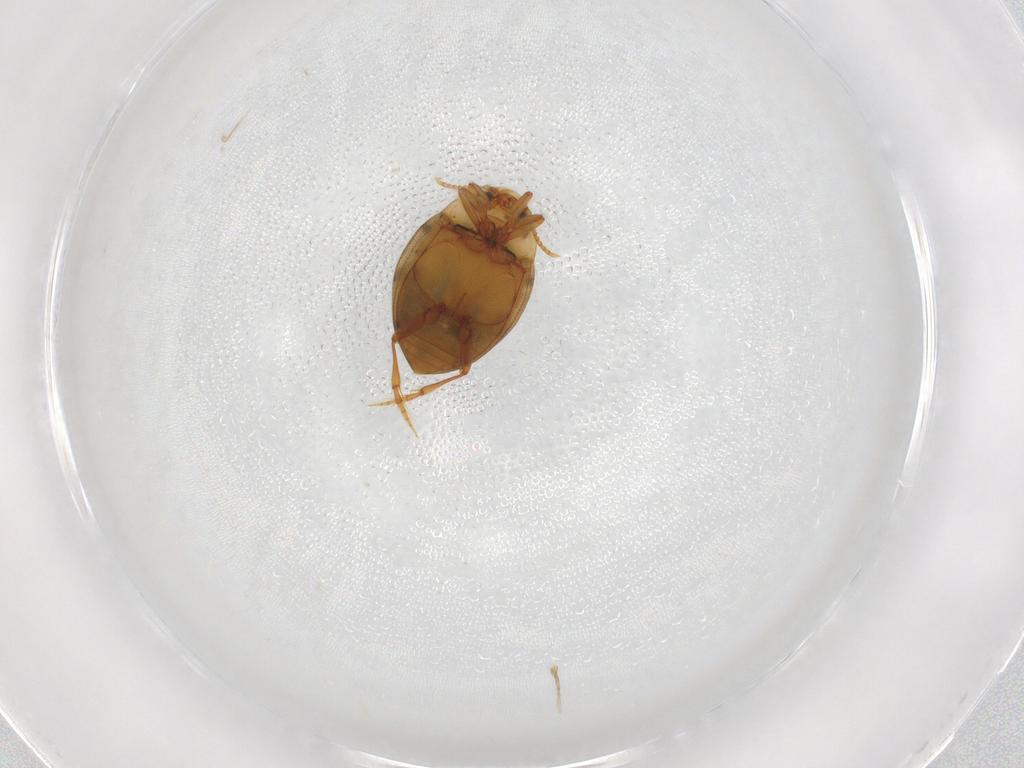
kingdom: Animalia
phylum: Arthropoda
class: Insecta
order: Coleoptera
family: Dytiscidae
